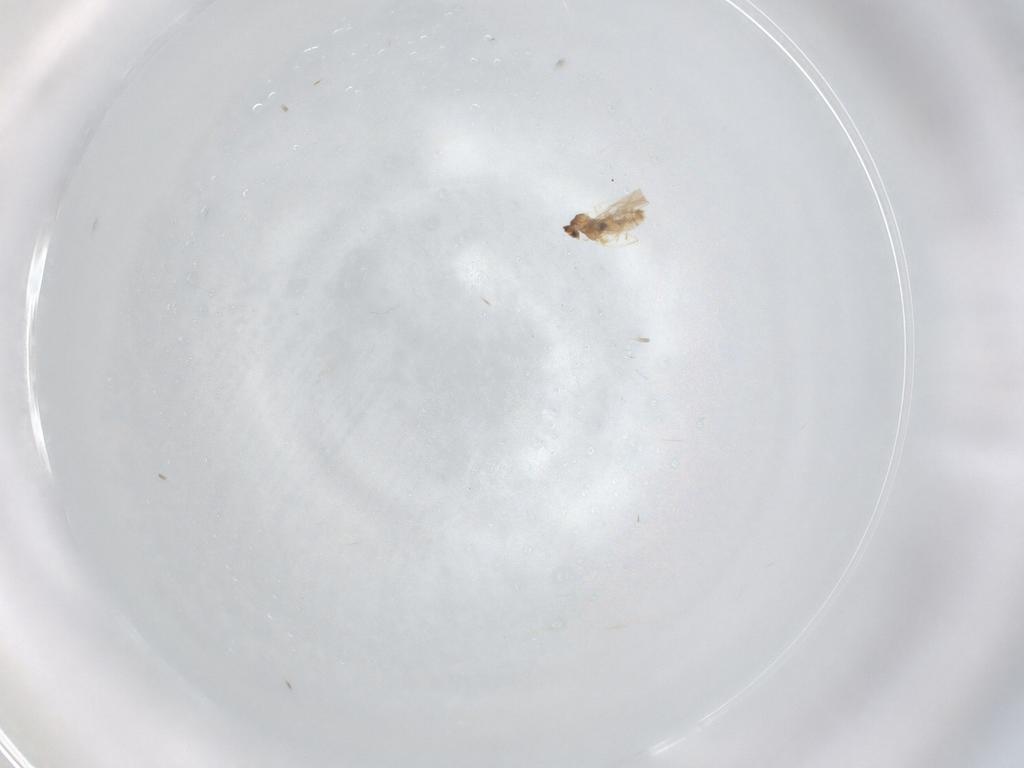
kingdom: Animalia
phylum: Arthropoda
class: Insecta
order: Diptera
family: Cecidomyiidae
